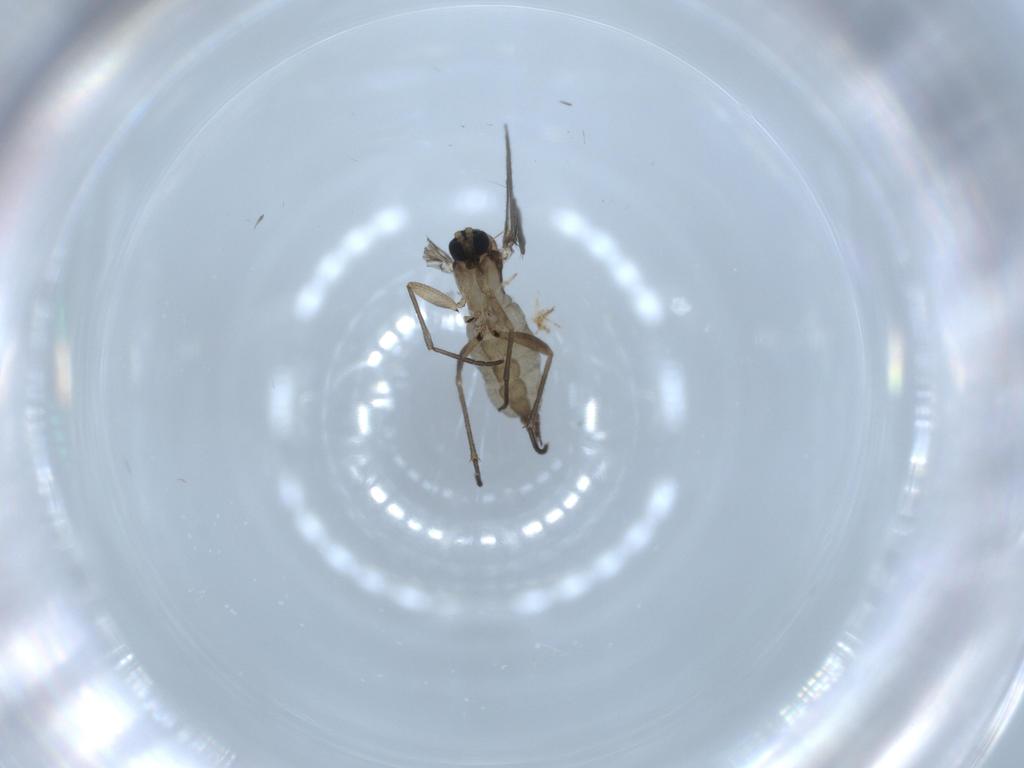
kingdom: Animalia
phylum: Arthropoda
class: Insecta
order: Diptera
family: Sciaridae
